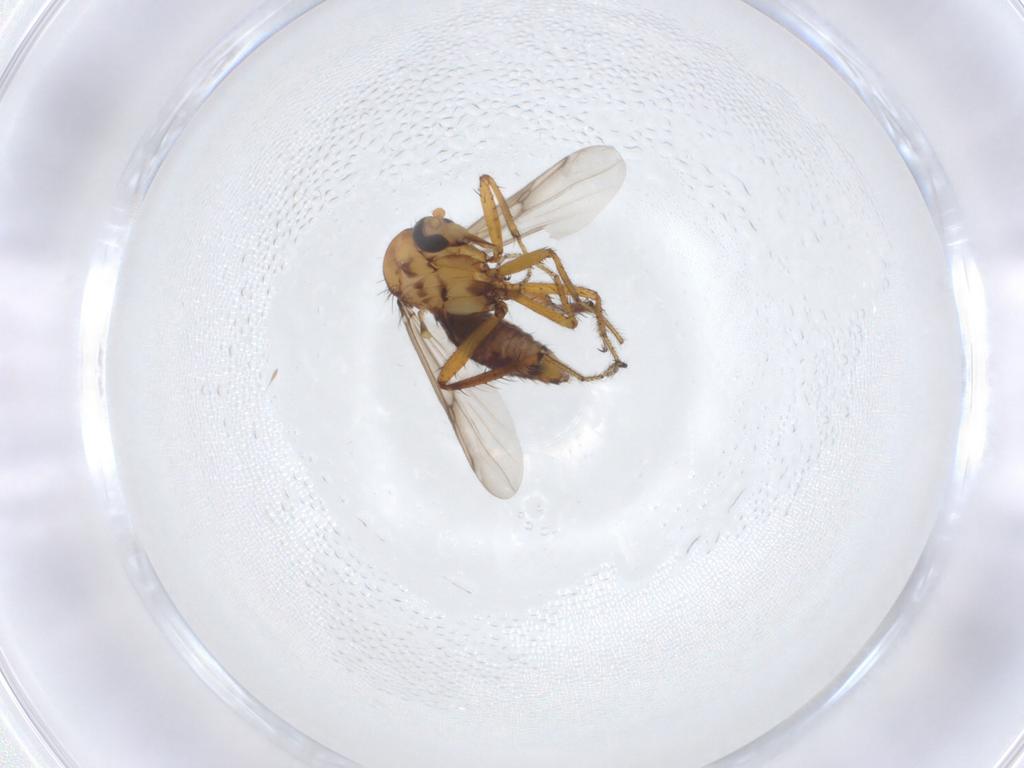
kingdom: Animalia
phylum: Arthropoda
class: Insecta
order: Diptera
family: Ceratopogonidae
